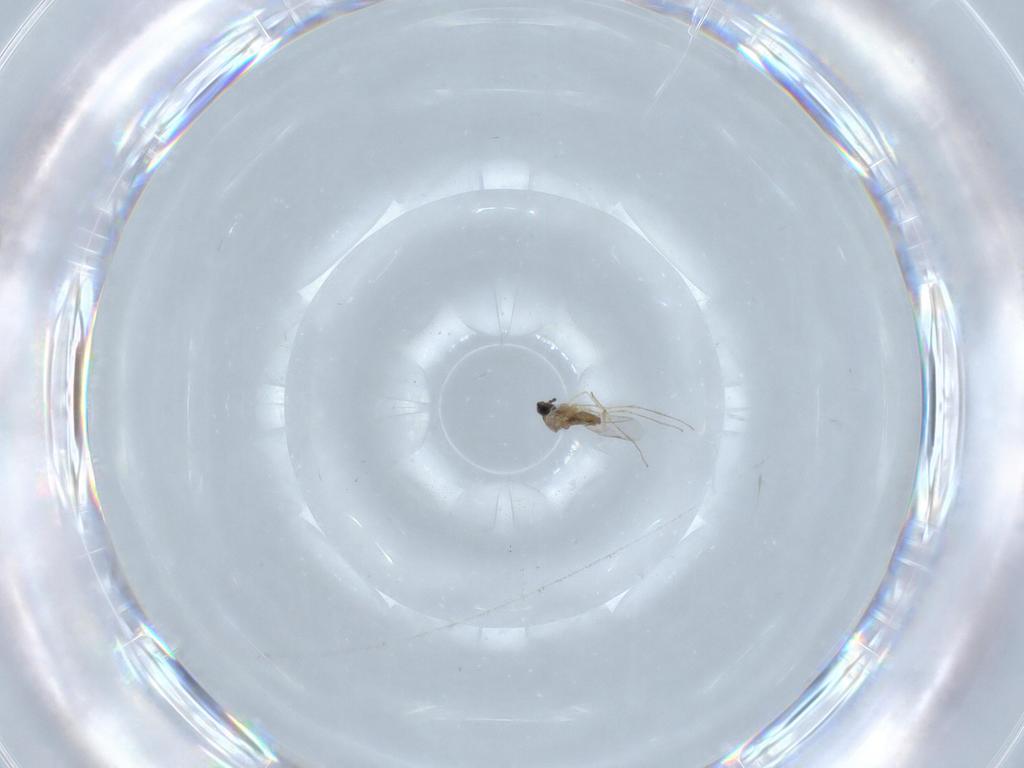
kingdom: Animalia
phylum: Arthropoda
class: Insecta
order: Diptera
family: Cecidomyiidae
